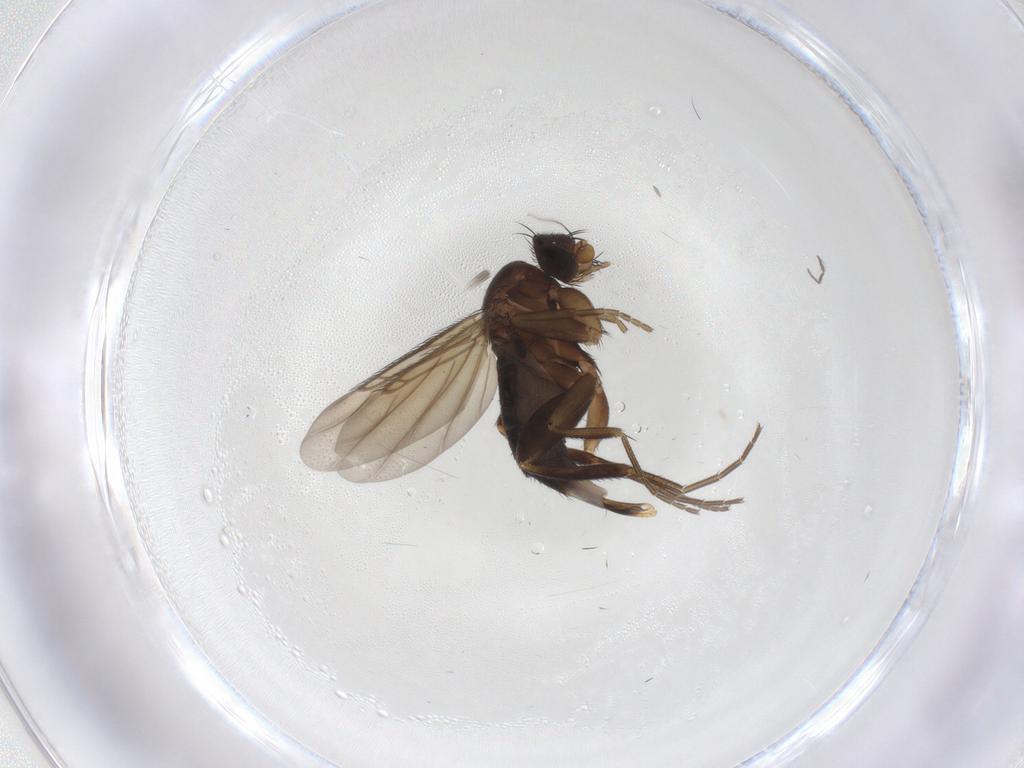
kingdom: Animalia
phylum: Arthropoda
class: Insecta
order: Diptera
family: Phoridae
